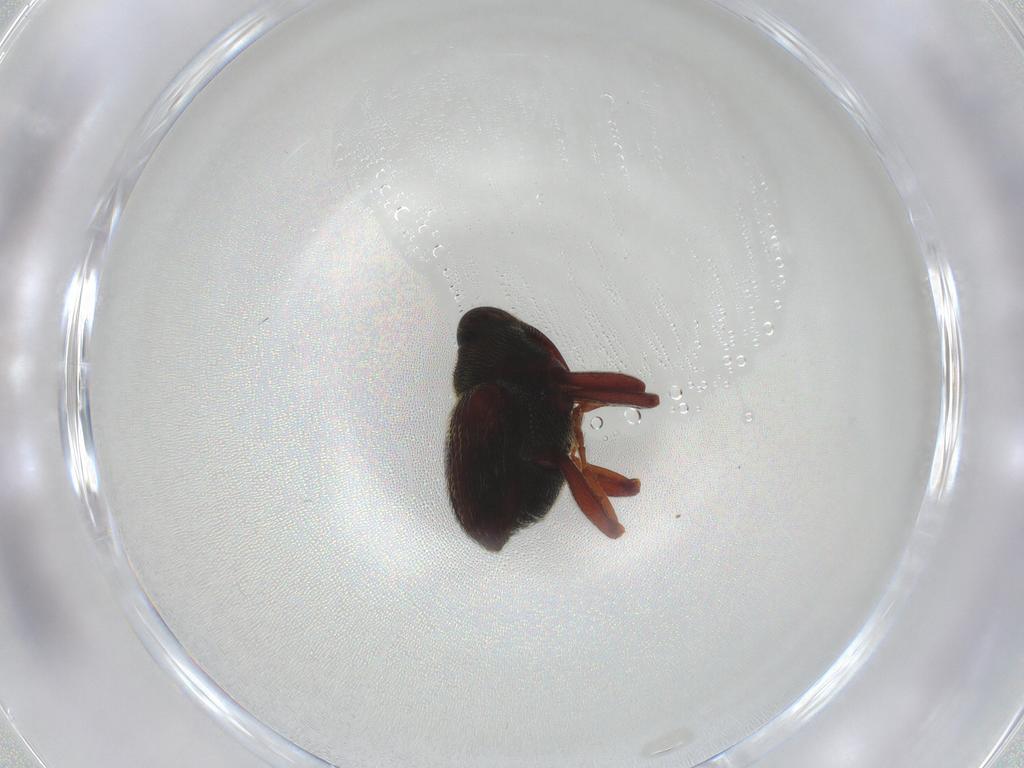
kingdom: Animalia
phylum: Arthropoda
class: Insecta
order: Coleoptera
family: Curculionidae
